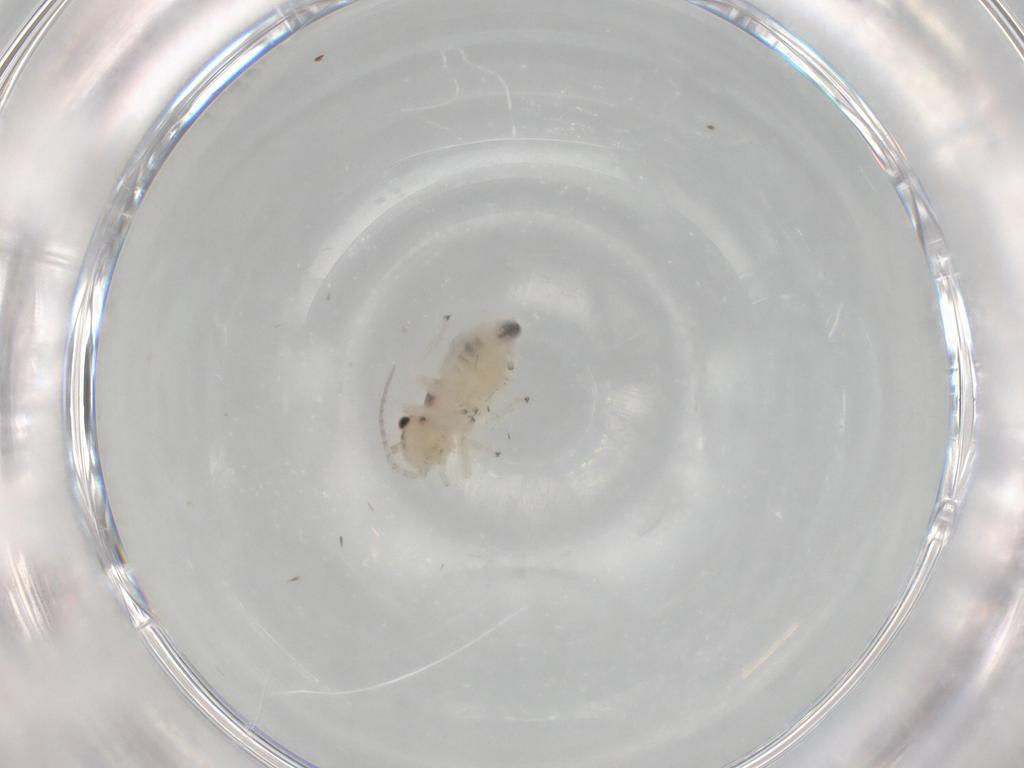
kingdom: Animalia
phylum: Arthropoda
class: Insecta
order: Psocodea
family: Amphipsocidae
